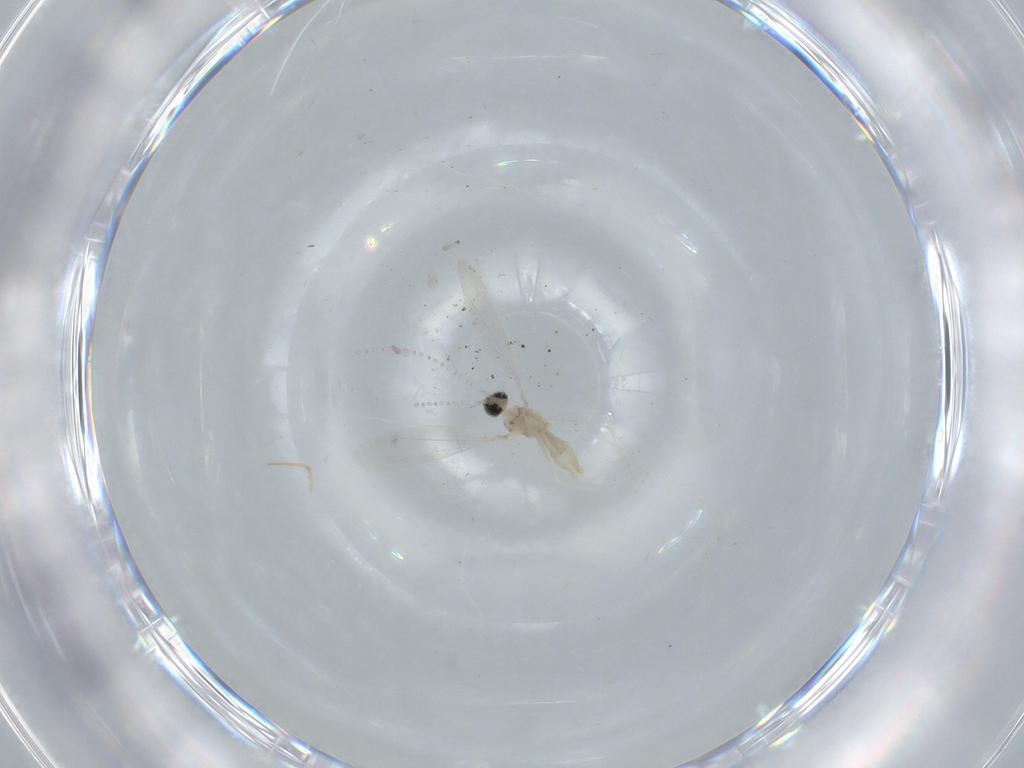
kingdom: Animalia
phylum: Arthropoda
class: Insecta
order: Diptera
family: Cecidomyiidae
